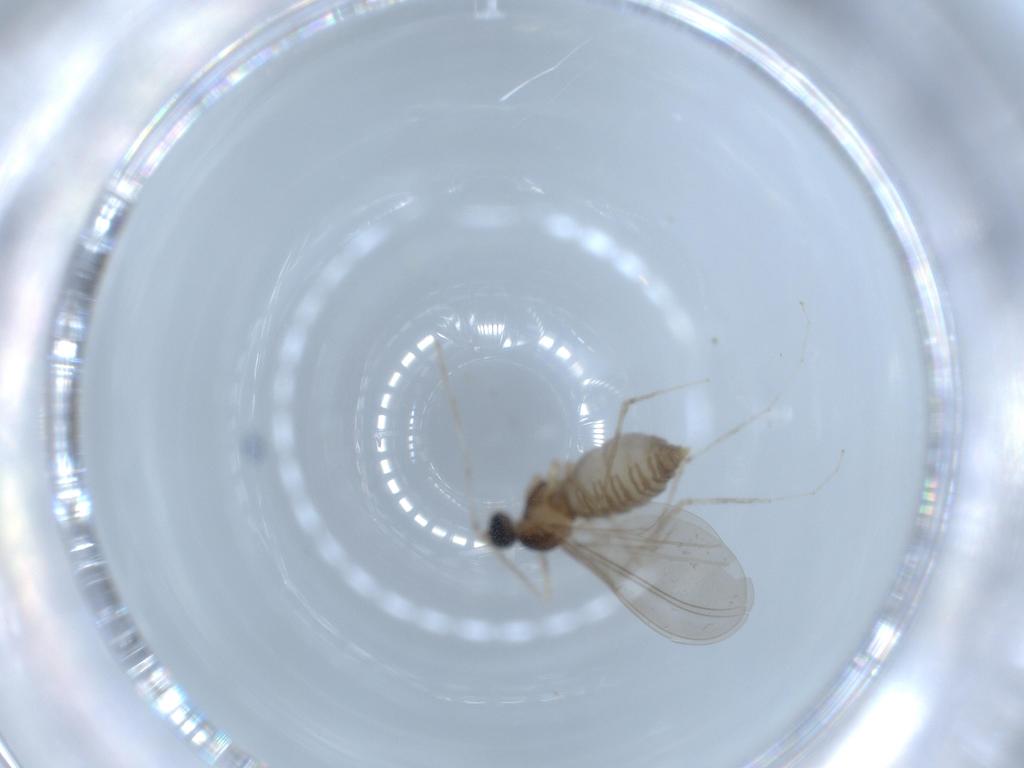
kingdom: Animalia
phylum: Arthropoda
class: Insecta
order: Diptera
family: Cecidomyiidae
